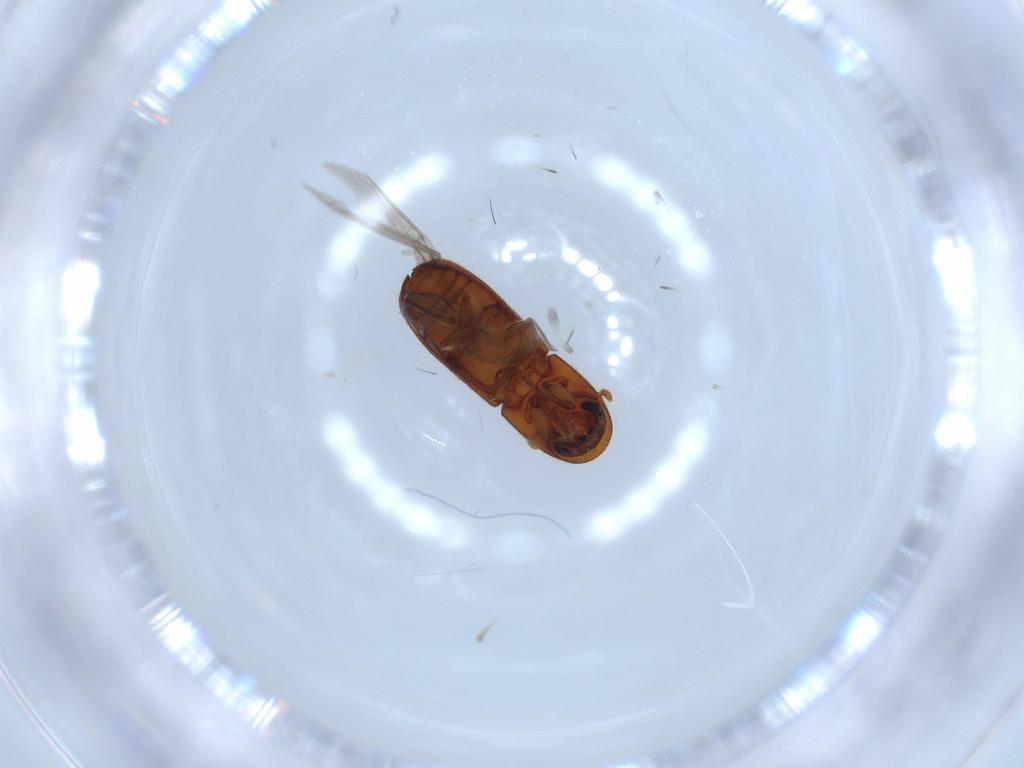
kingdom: Animalia
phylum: Arthropoda
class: Insecta
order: Coleoptera
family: Curculionidae
